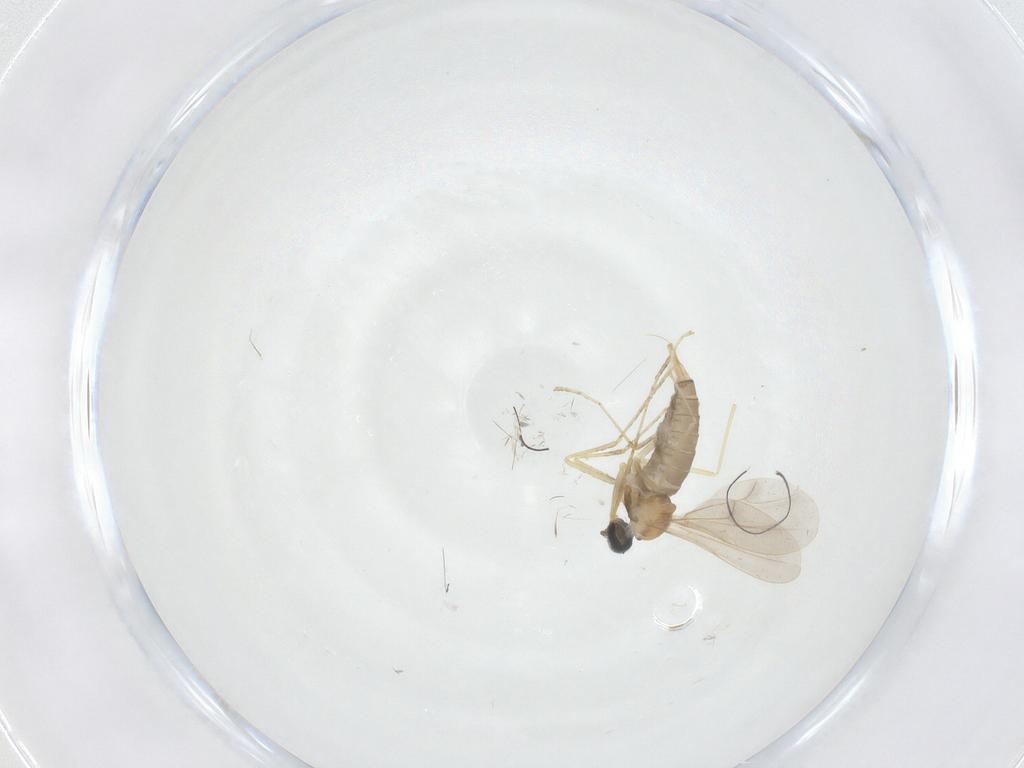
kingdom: Animalia
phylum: Arthropoda
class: Insecta
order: Diptera
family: Cecidomyiidae
